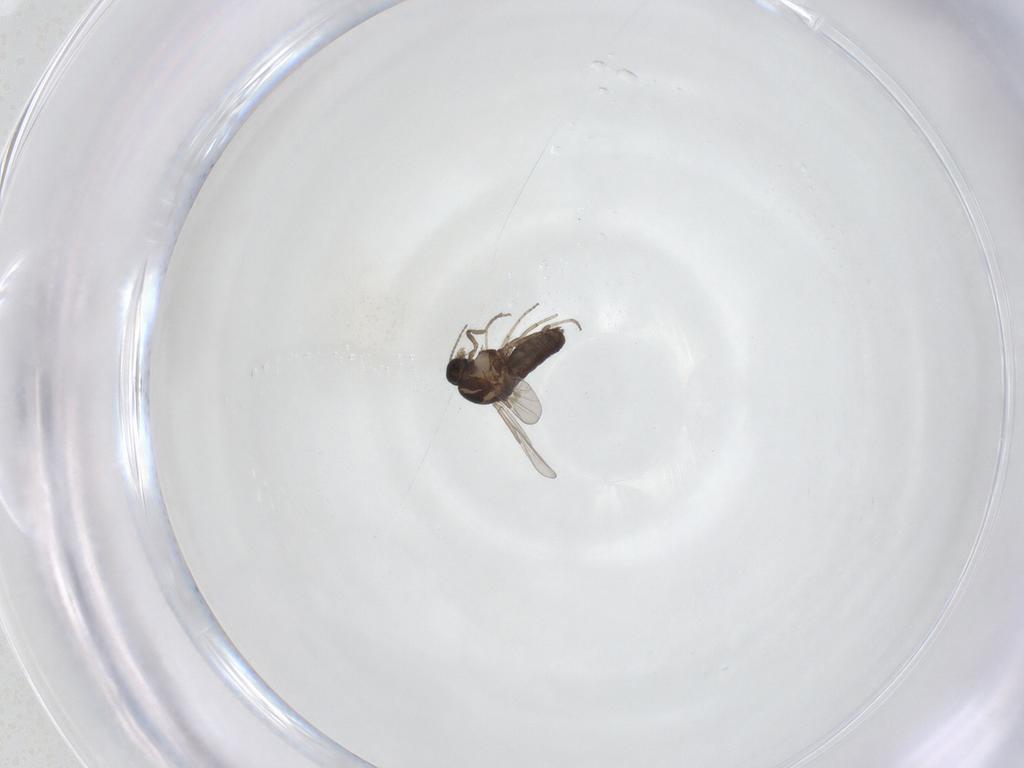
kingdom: Animalia
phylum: Arthropoda
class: Insecta
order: Diptera
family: Ceratopogonidae
